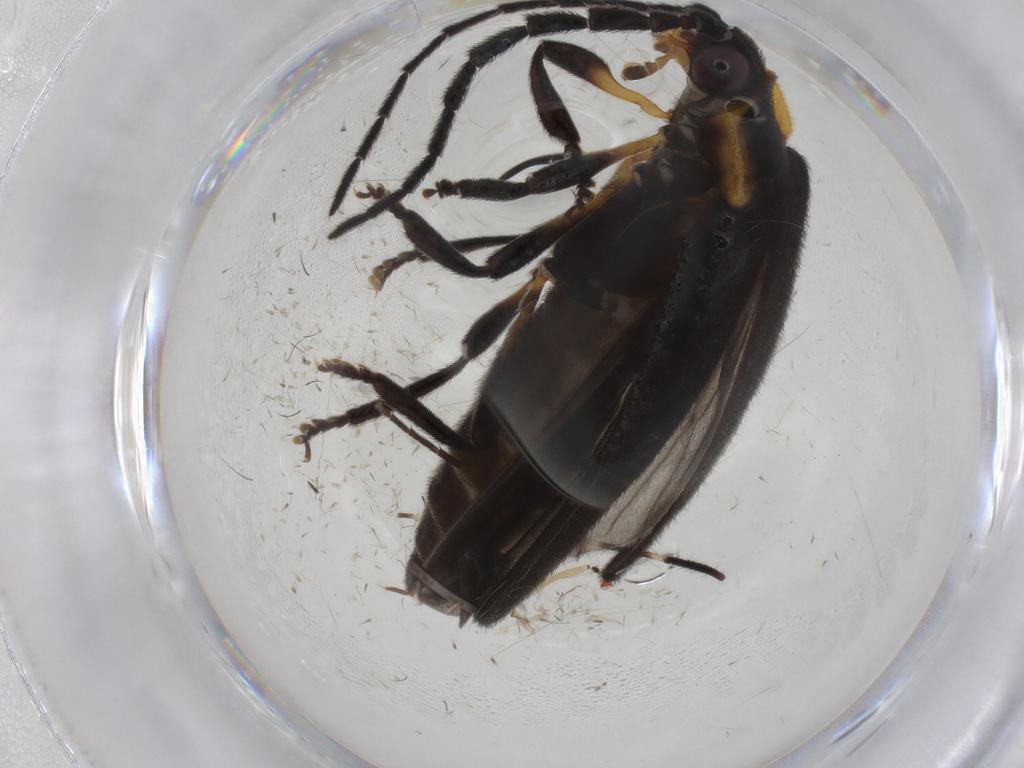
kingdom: Animalia
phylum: Arthropoda
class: Insecta
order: Coleoptera
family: Lycidae
